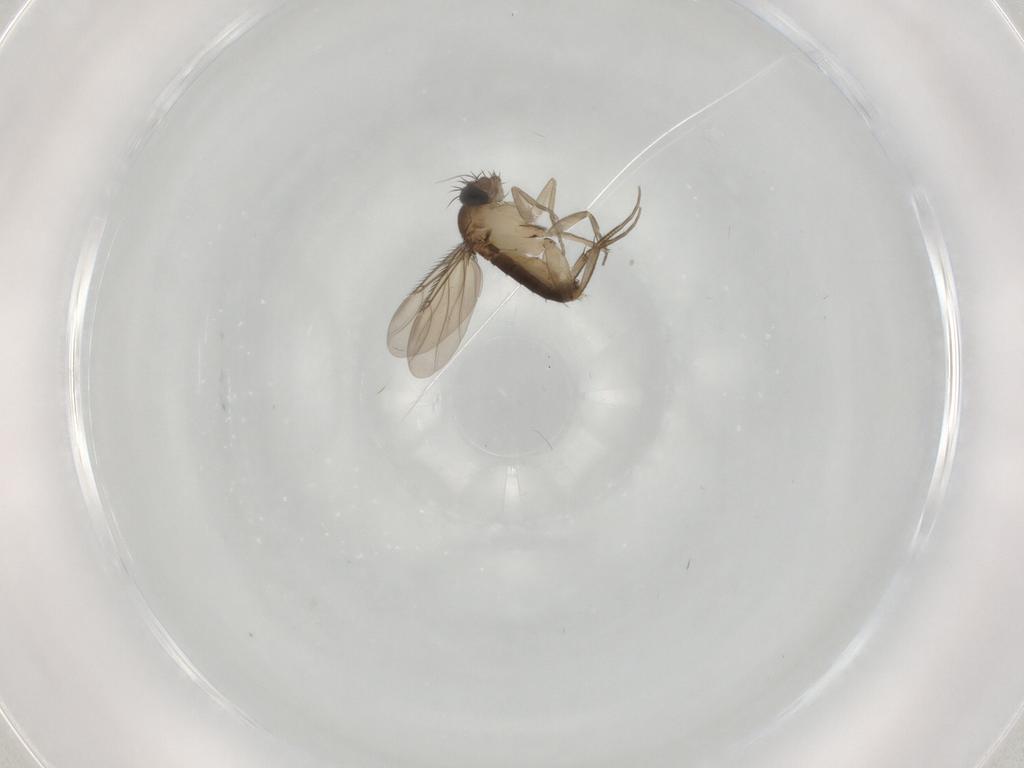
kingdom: Animalia
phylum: Arthropoda
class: Insecta
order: Diptera
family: Phoridae
